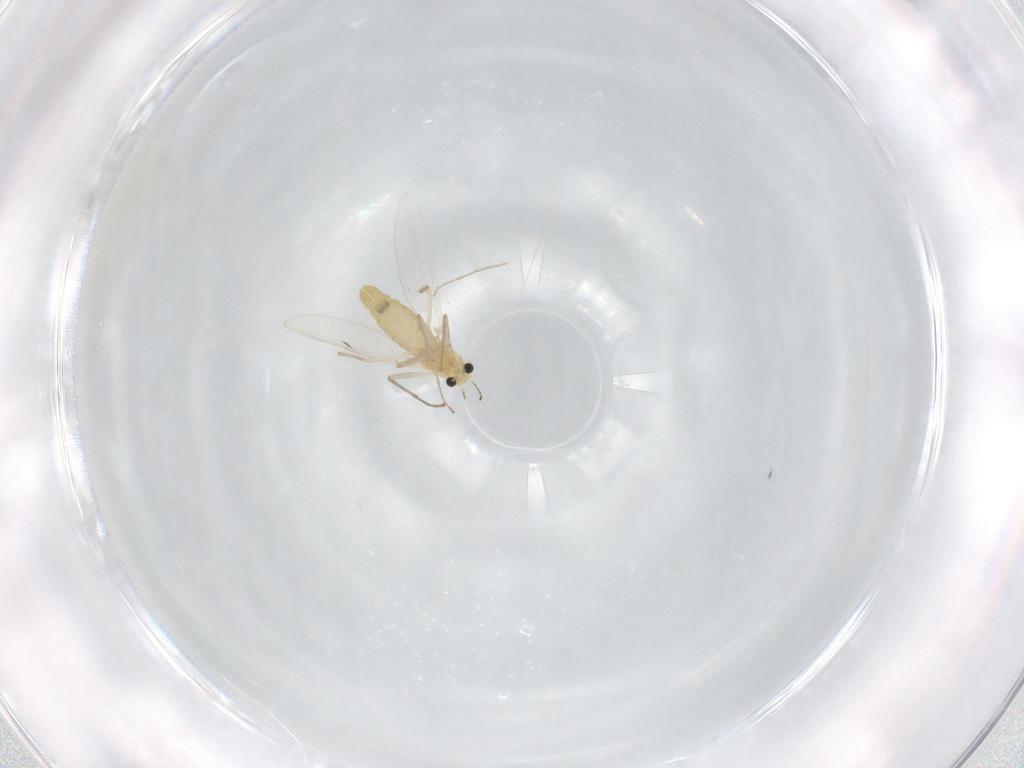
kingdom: Animalia
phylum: Arthropoda
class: Insecta
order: Diptera
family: Chironomidae
